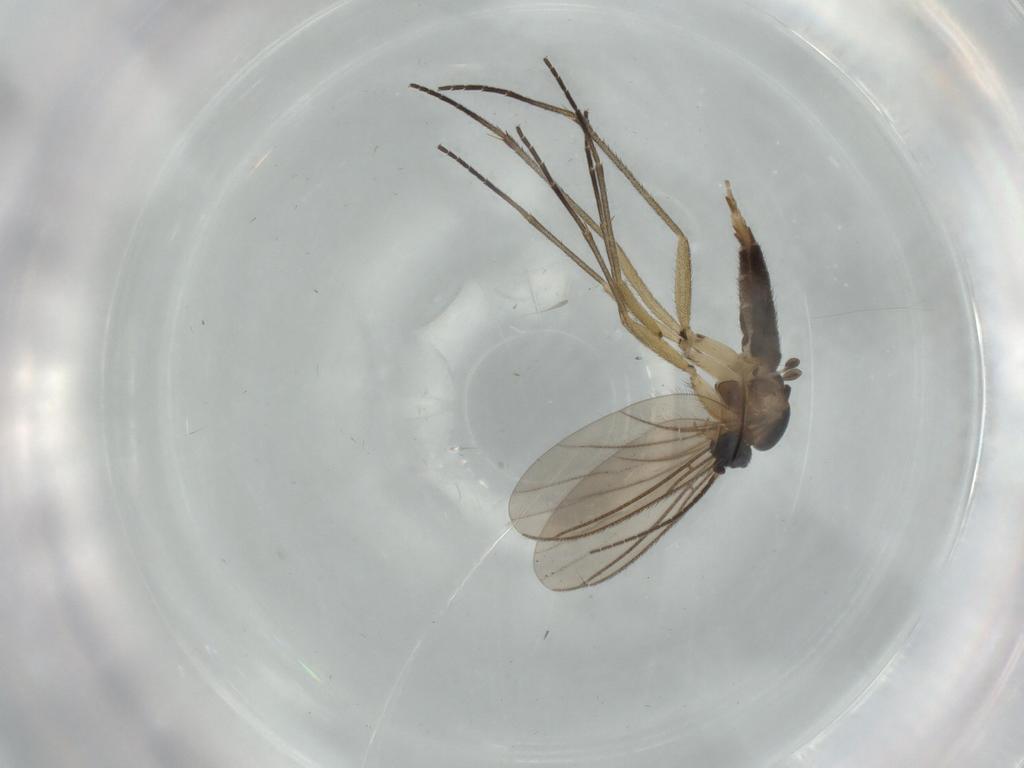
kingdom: Animalia
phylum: Arthropoda
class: Insecta
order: Diptera
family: Sciaridae
